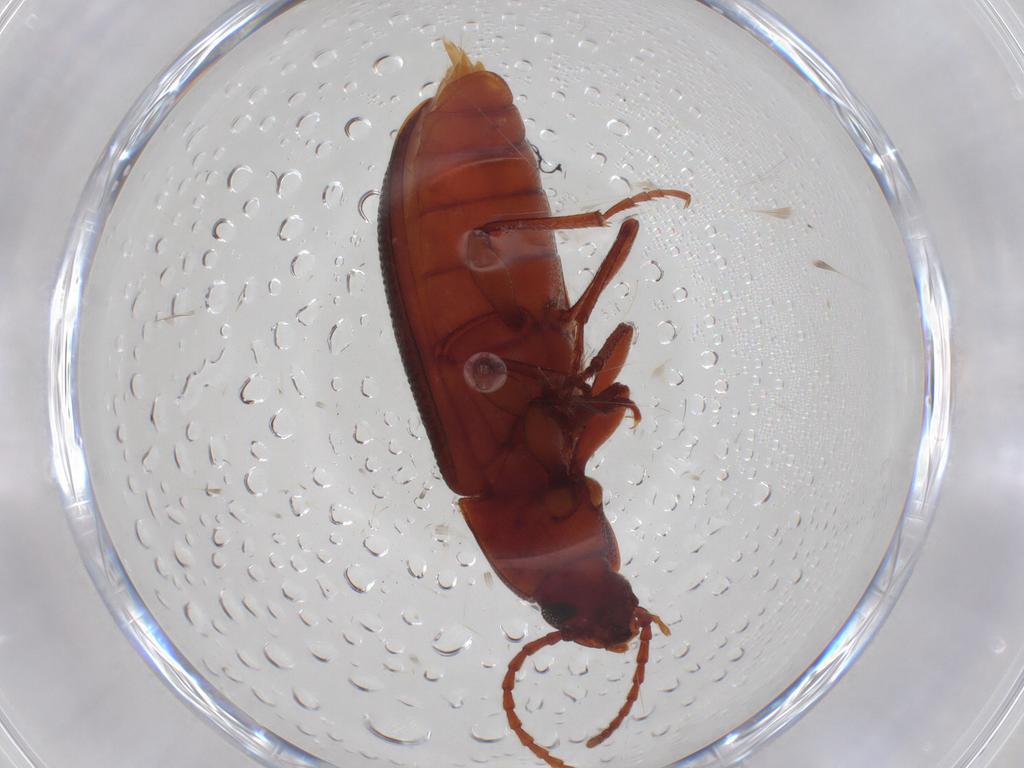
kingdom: Animalia
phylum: Arthropoda
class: Insecta
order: Coleoptera
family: Tenebrionidae
